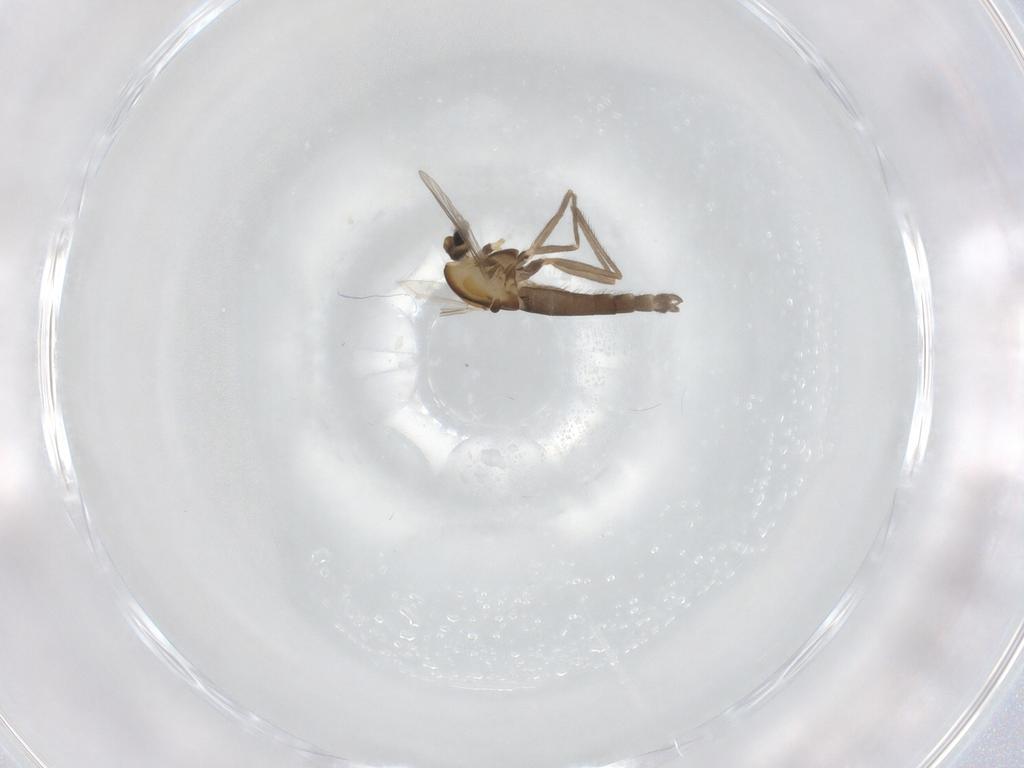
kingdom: Animalia
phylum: Arthropoda
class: Insecta
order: Diptera
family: Chironomidae
